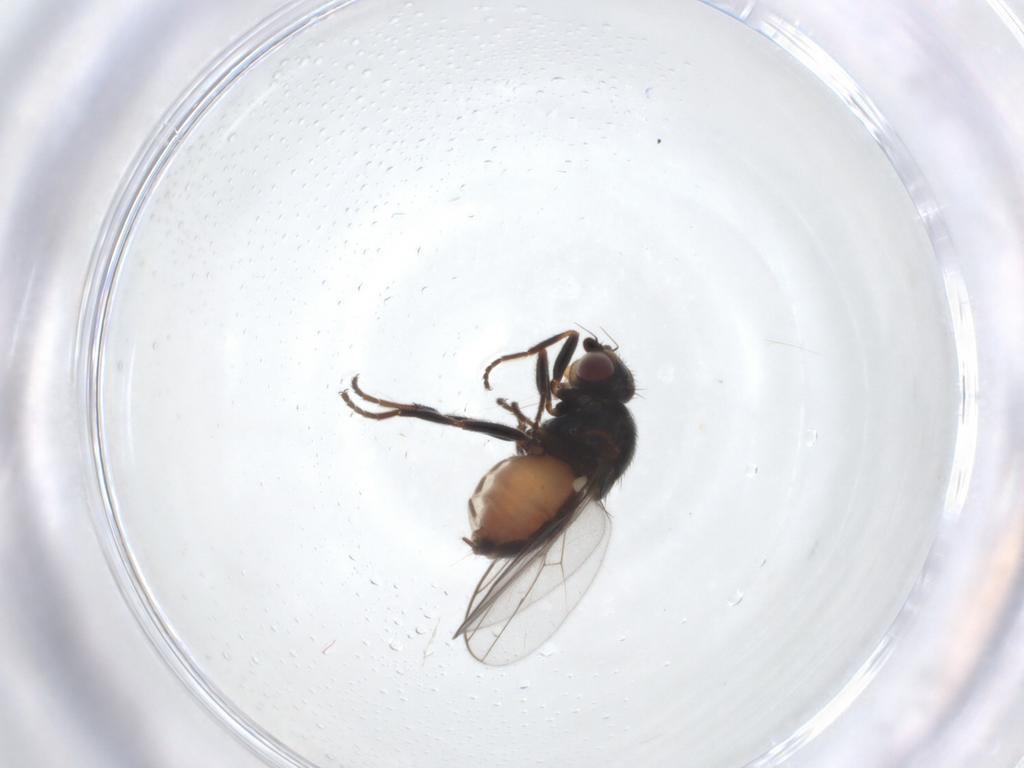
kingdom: Animalia
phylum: Arthropoda
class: Insecta
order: Diptera
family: Chloropidae
